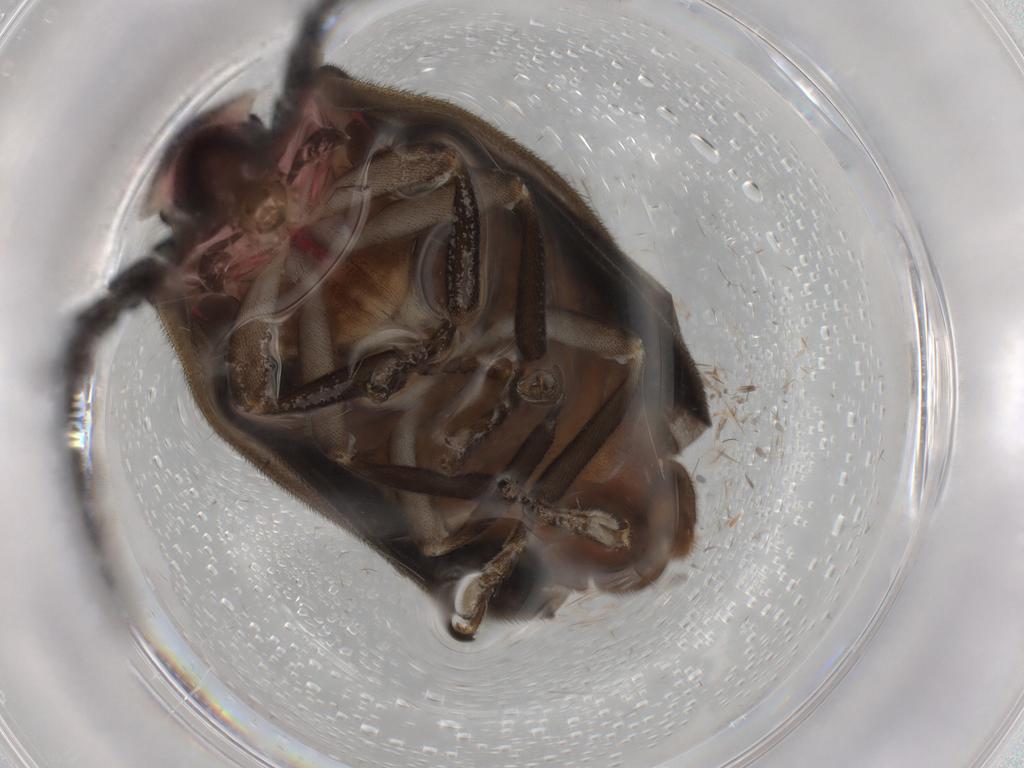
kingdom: Animalia
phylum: Arthropoda
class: Insecta
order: Coleoptera
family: Lampyridae
